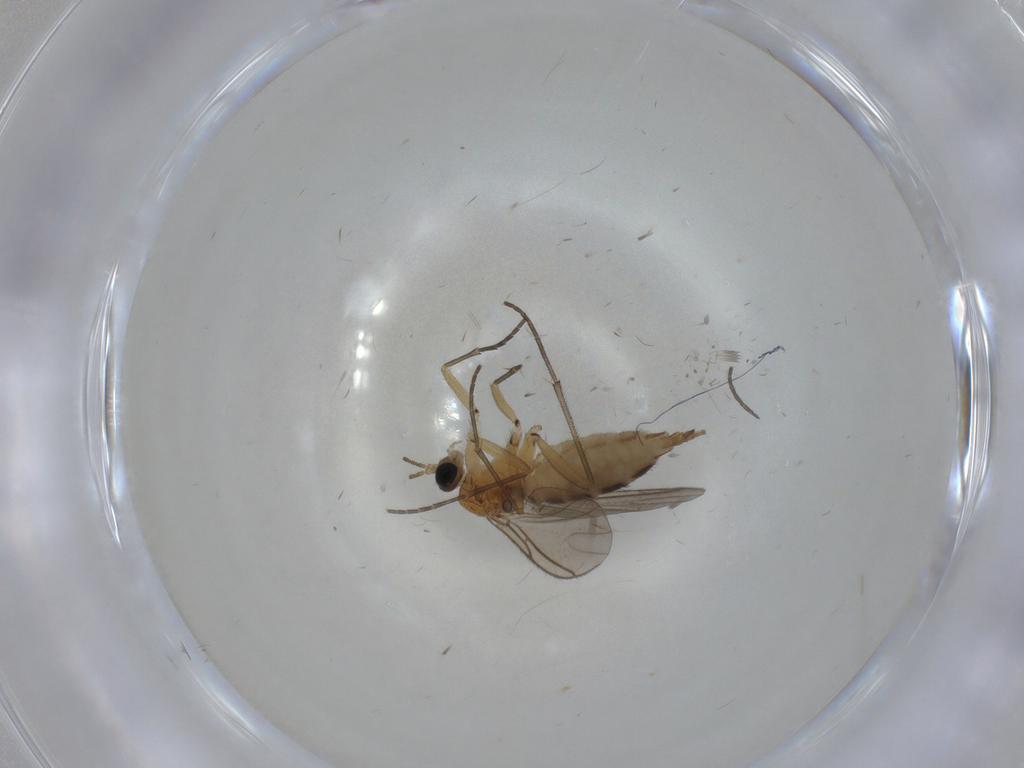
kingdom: Animalia
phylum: Arthropoda
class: Insecta
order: Diptera
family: Sciaridae
